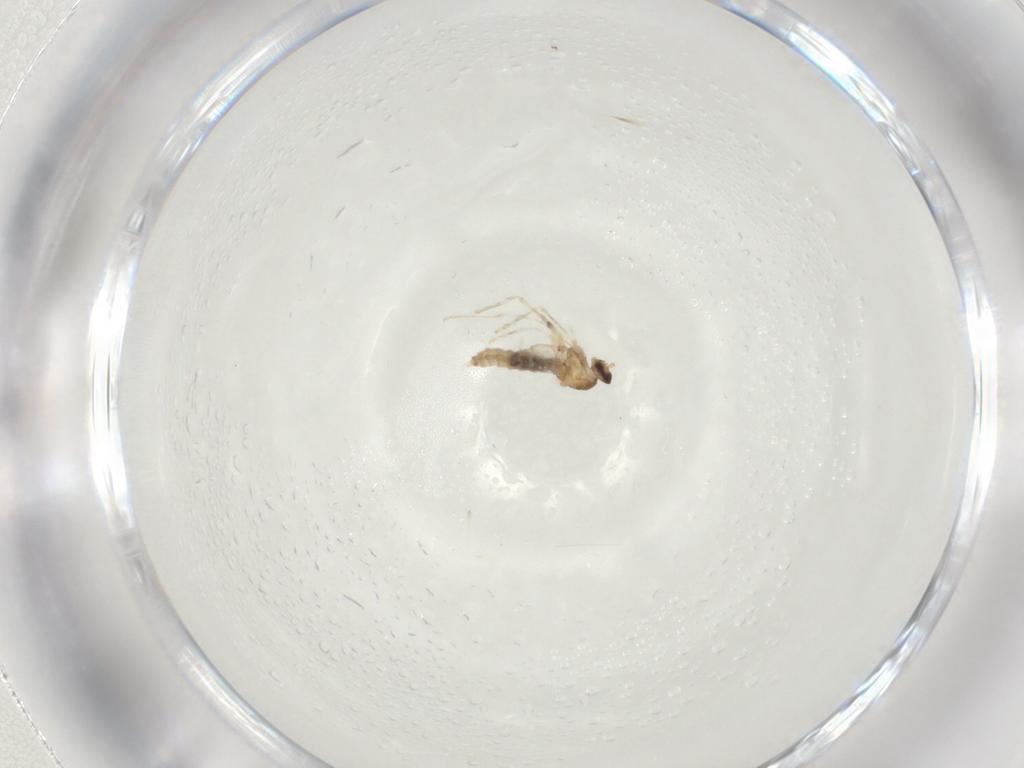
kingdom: Animalia
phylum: Arthropoda
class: Insecta
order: Diptera
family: Cecidomyiidae
